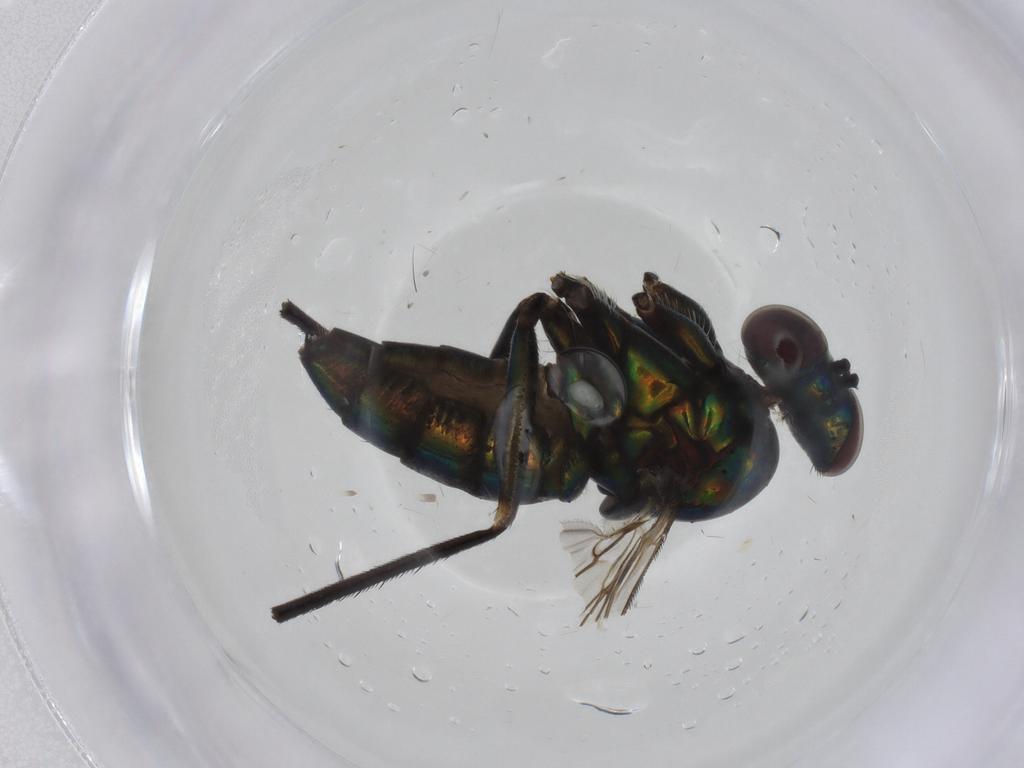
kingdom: Animalia
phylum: Arthropoda
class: Insecta
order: Diptera
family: Dolichopodidae
